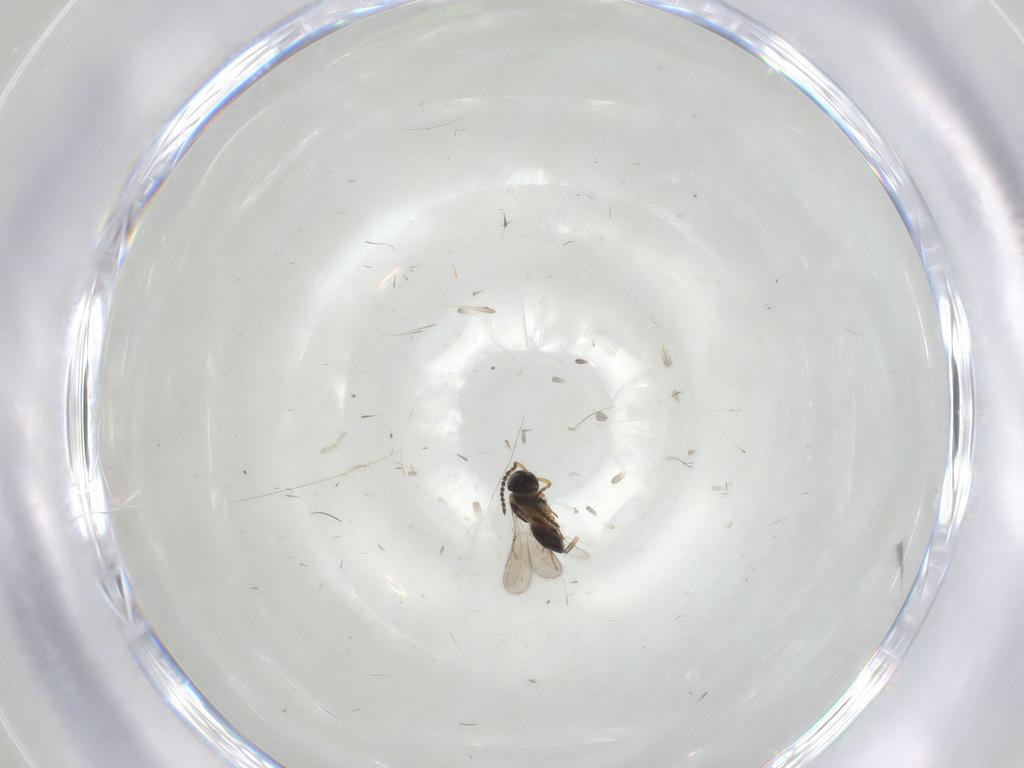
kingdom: Animalia
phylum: Arthropoda
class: Insecta
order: Hymenoptera
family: Scelionidae
